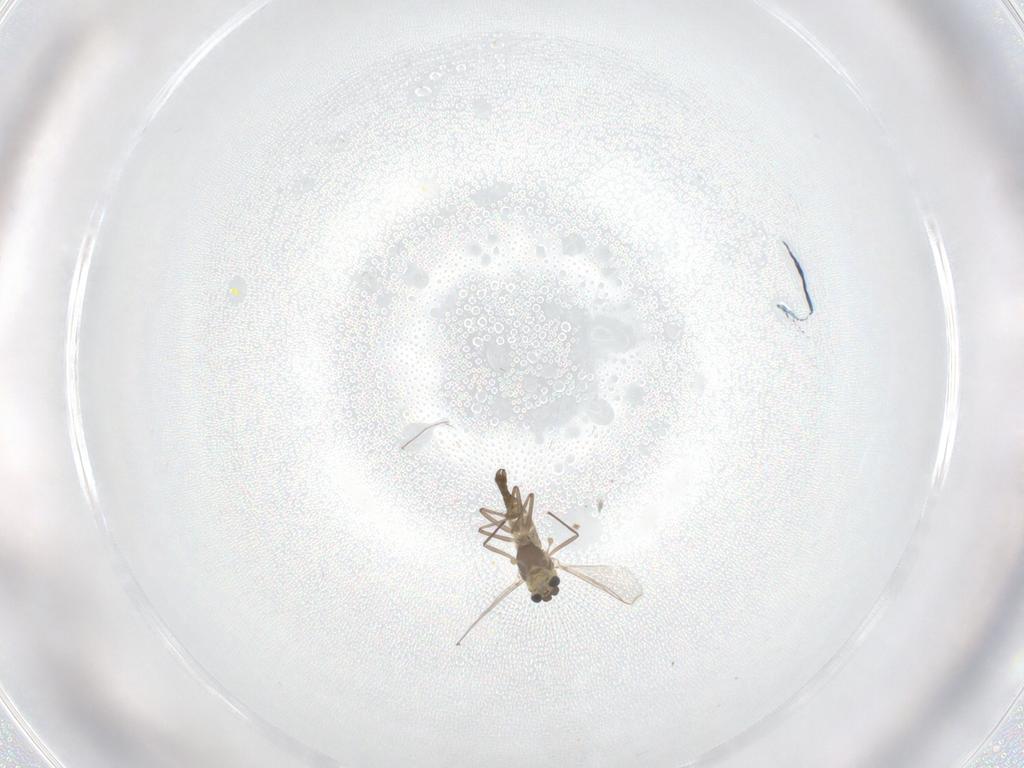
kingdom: Animalia
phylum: Arthropoda
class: Insecta
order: Diptera
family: Chironomidae
